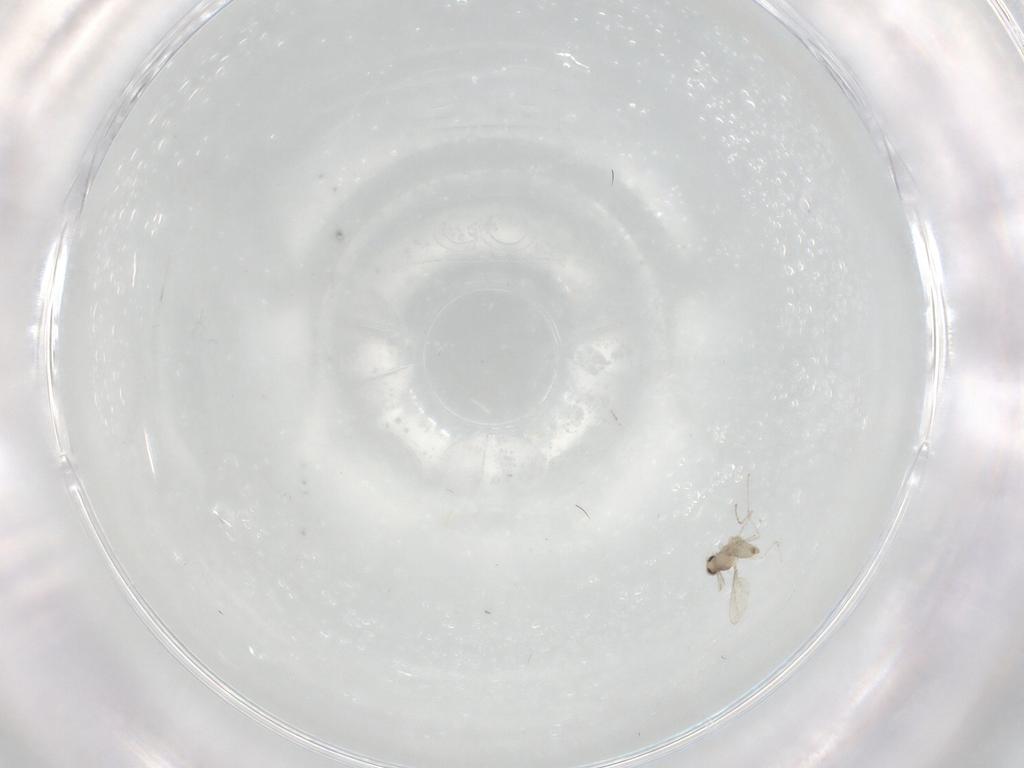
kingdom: Animalia
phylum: Arthropoda
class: Insecta
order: Diptera
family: Cecidomyiidae
